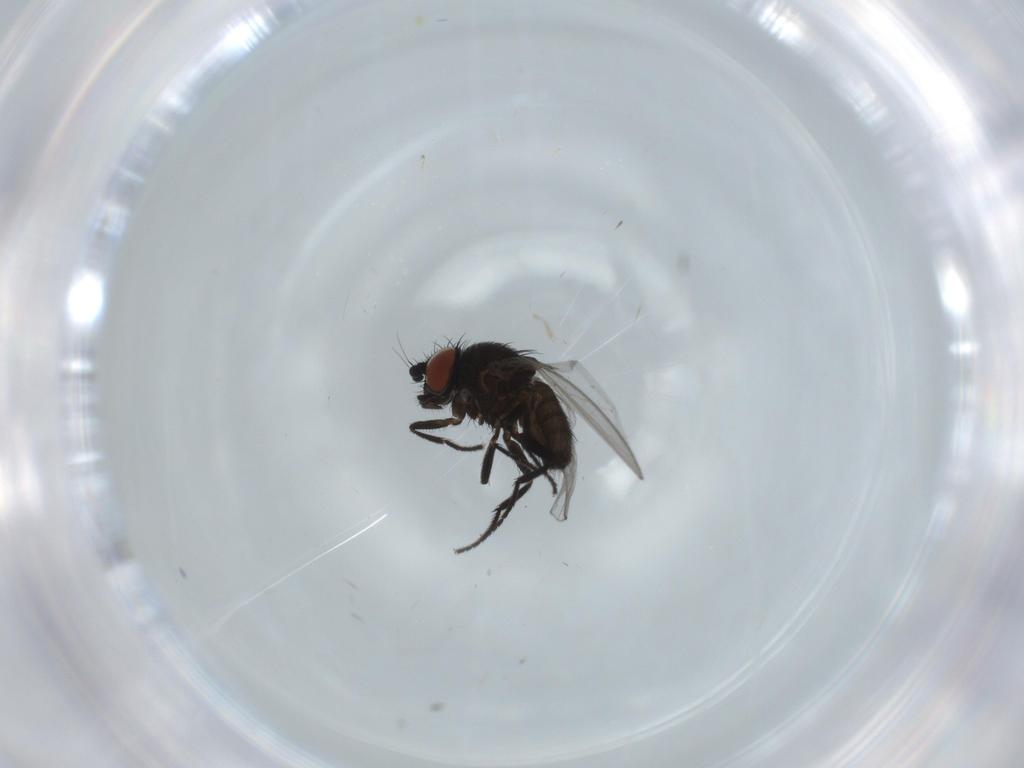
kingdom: Animalia
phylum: Arthropoda
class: Insecta
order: Diptera
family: Milichiidae
